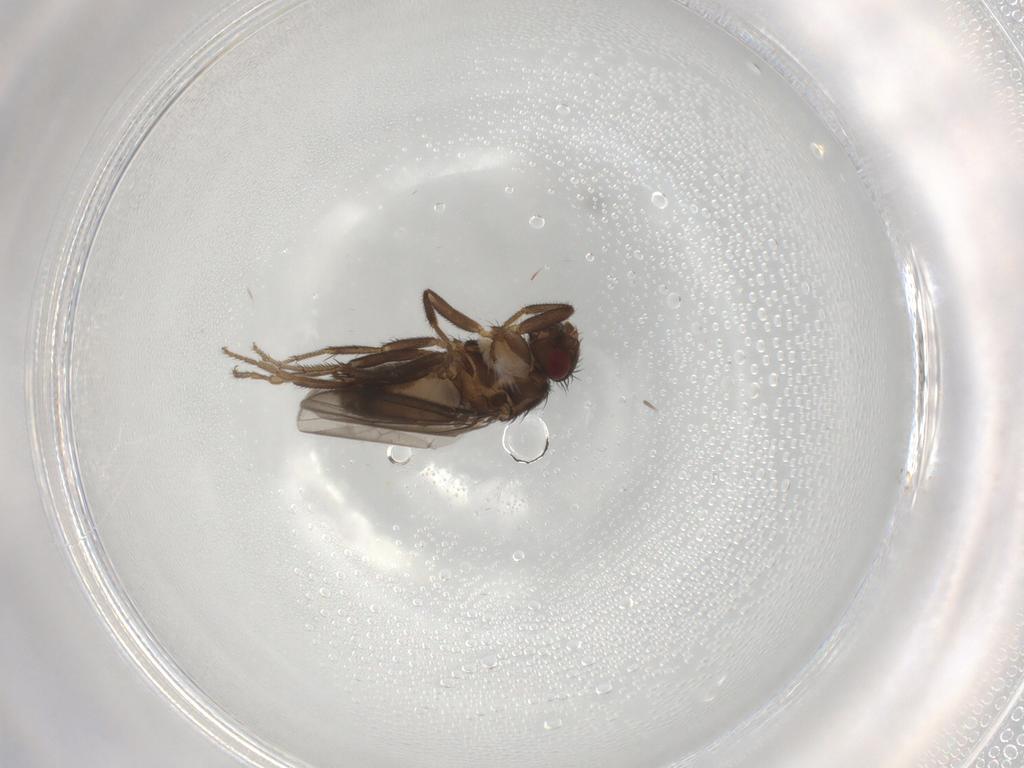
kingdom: Animalia
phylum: Arthropoda
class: Insecta
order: Diptera
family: Sphaeroceridae
